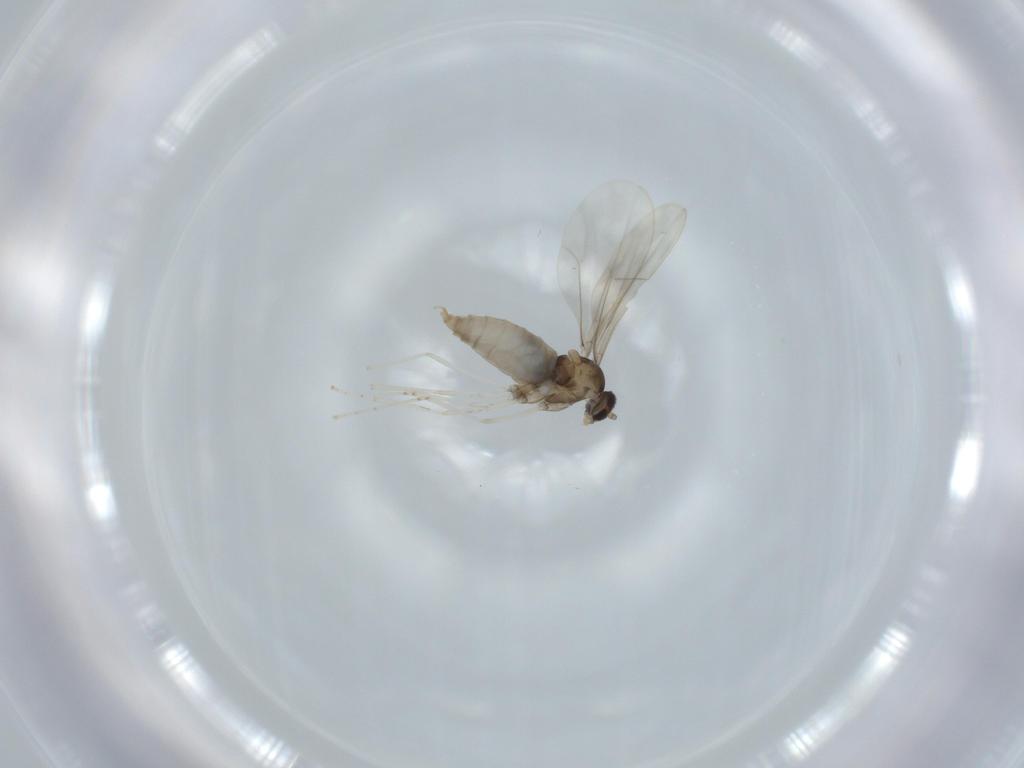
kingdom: Animalia
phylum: Arthropoda
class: Insecta
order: Diptera
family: Cecidomyiidae
